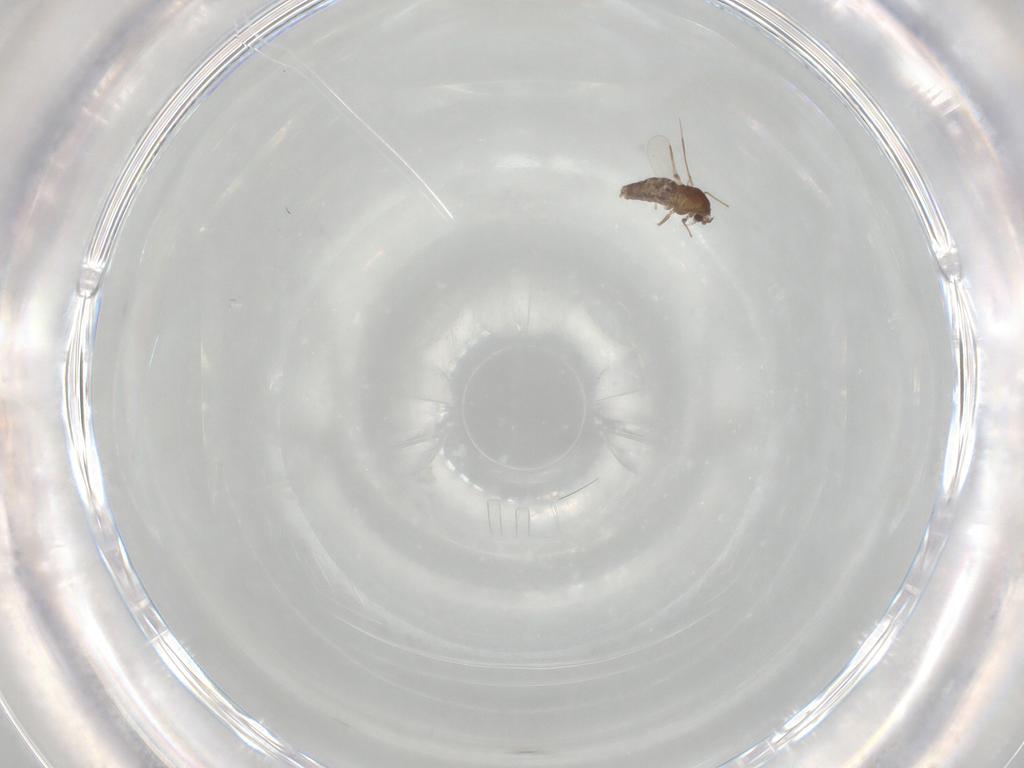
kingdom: Animalia
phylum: Arthropoda
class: Insecta
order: Diptera
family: Chironomidae
